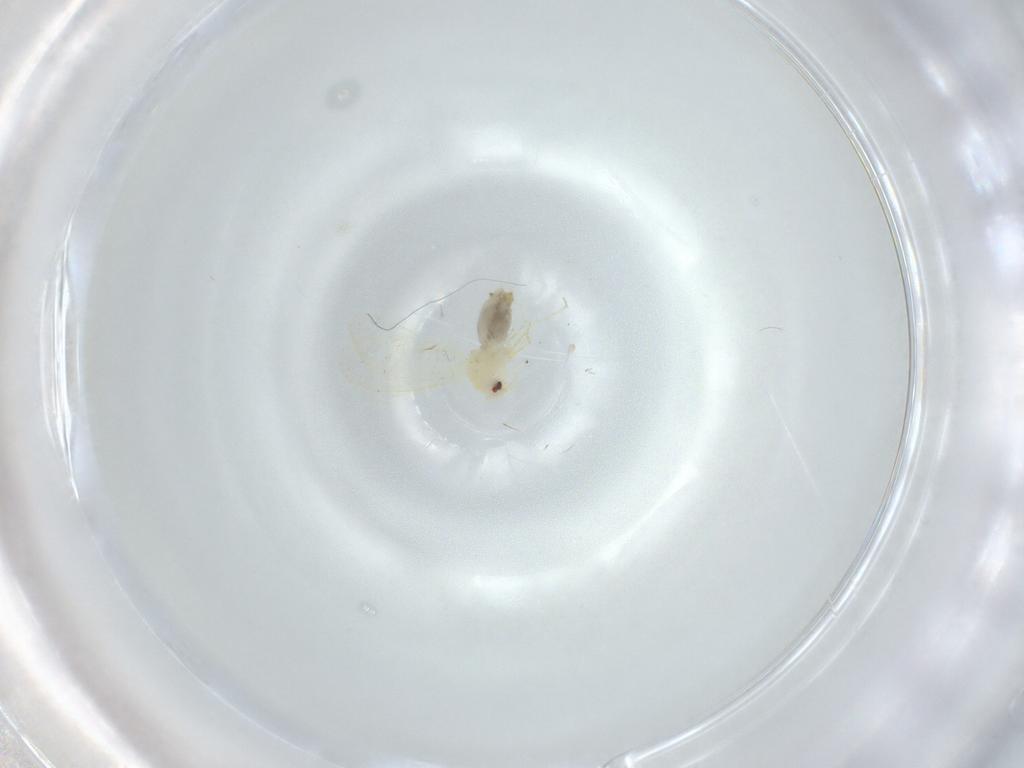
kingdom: Animalia
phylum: Arthropoda
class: Insecta
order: Hemiptera
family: Aleyrodidae
